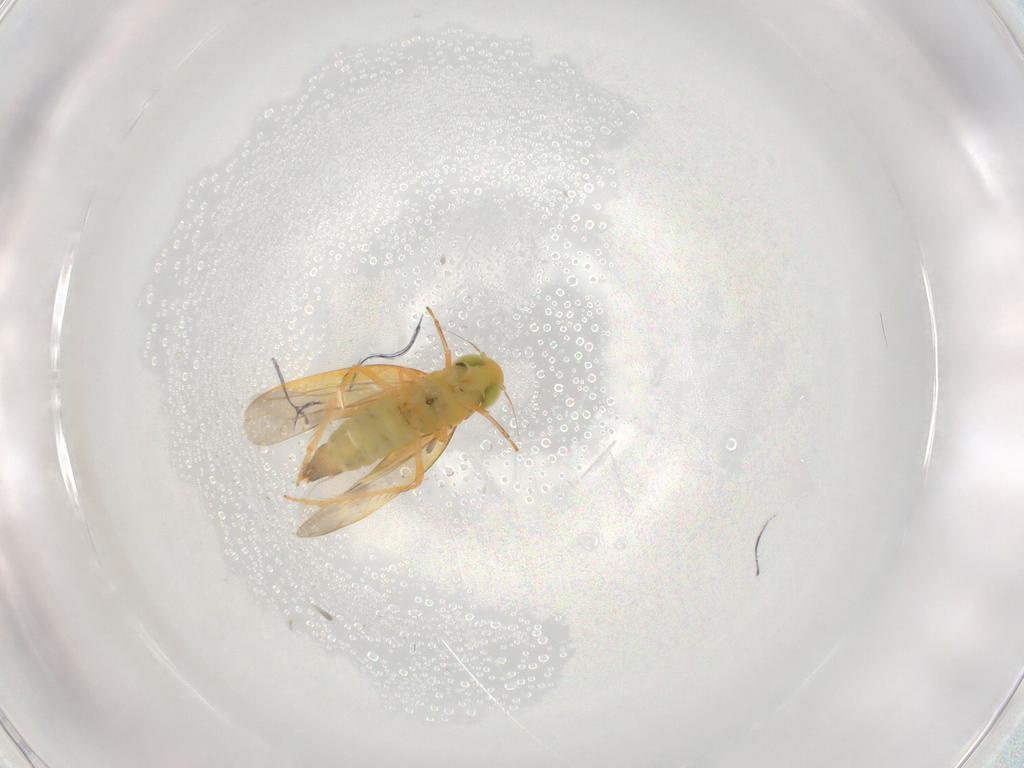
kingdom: Animalia
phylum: Arthropoda
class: Insecta
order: Hemiptera
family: Cicadellidae
